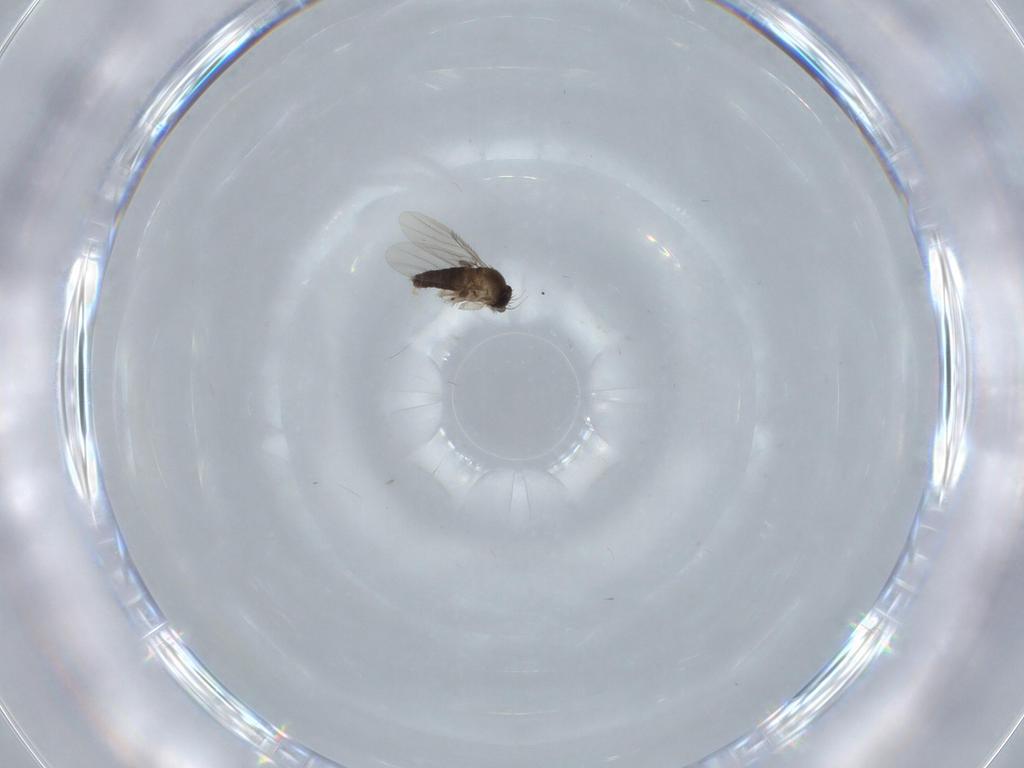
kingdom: Animalia
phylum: Arthropoda
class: Insecta
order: Diptera
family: Phoridae
